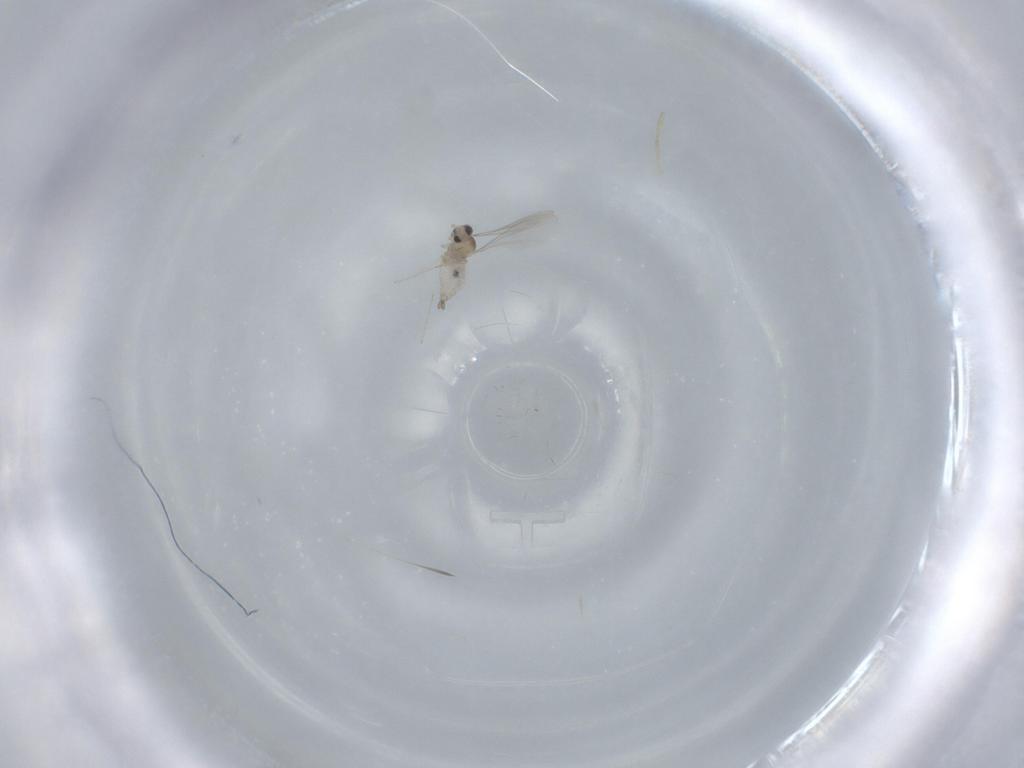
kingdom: Animalia
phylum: Arthropoda
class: Insecta
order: Diptera
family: Cecidomyiidae
